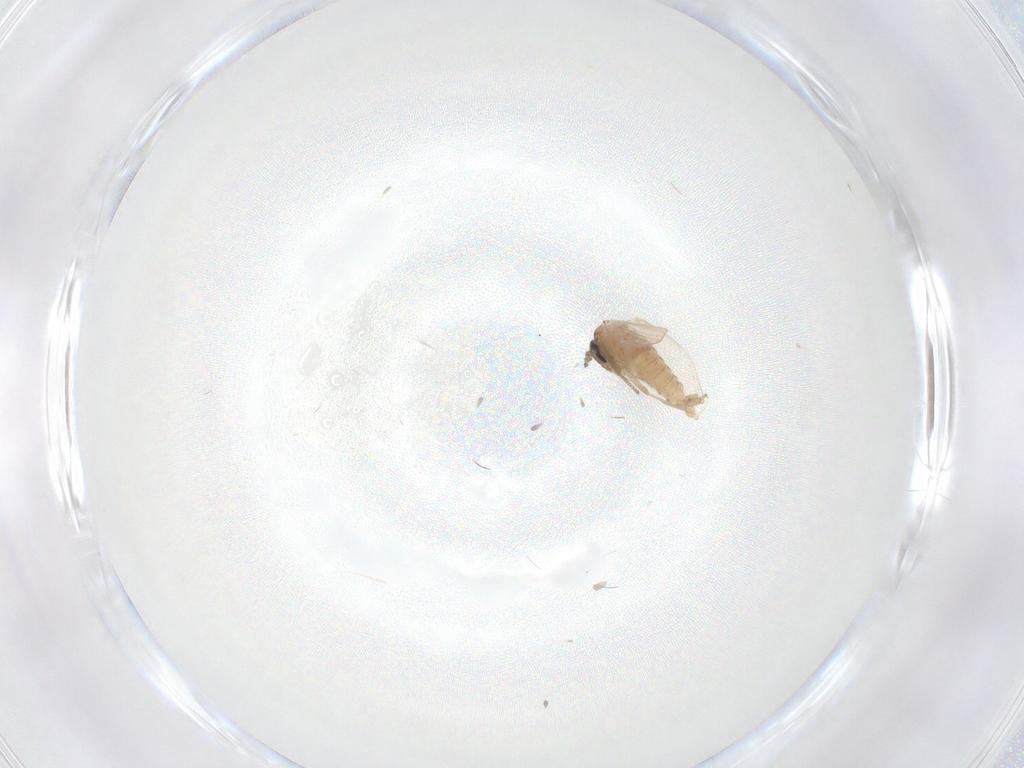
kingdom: Animalia
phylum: Arthropoda
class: Insecta
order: Diptera
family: Psychodidae
